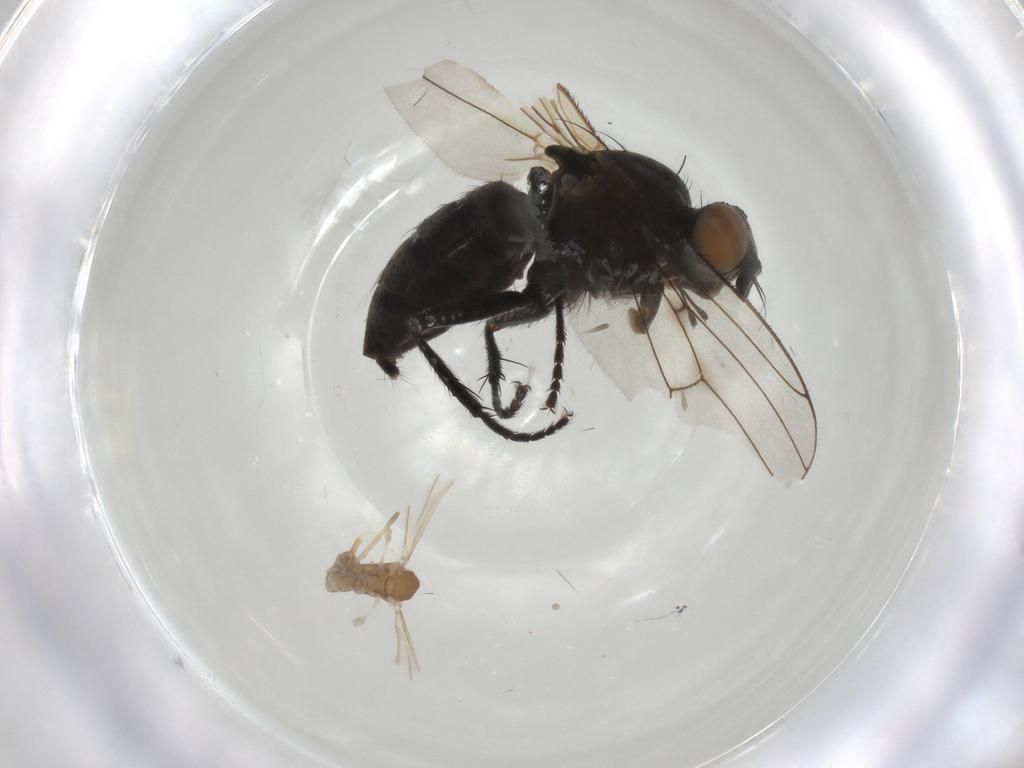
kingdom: Animalia
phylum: Arthropoda
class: Insecta
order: Diptera
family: Cecidomyiidae
